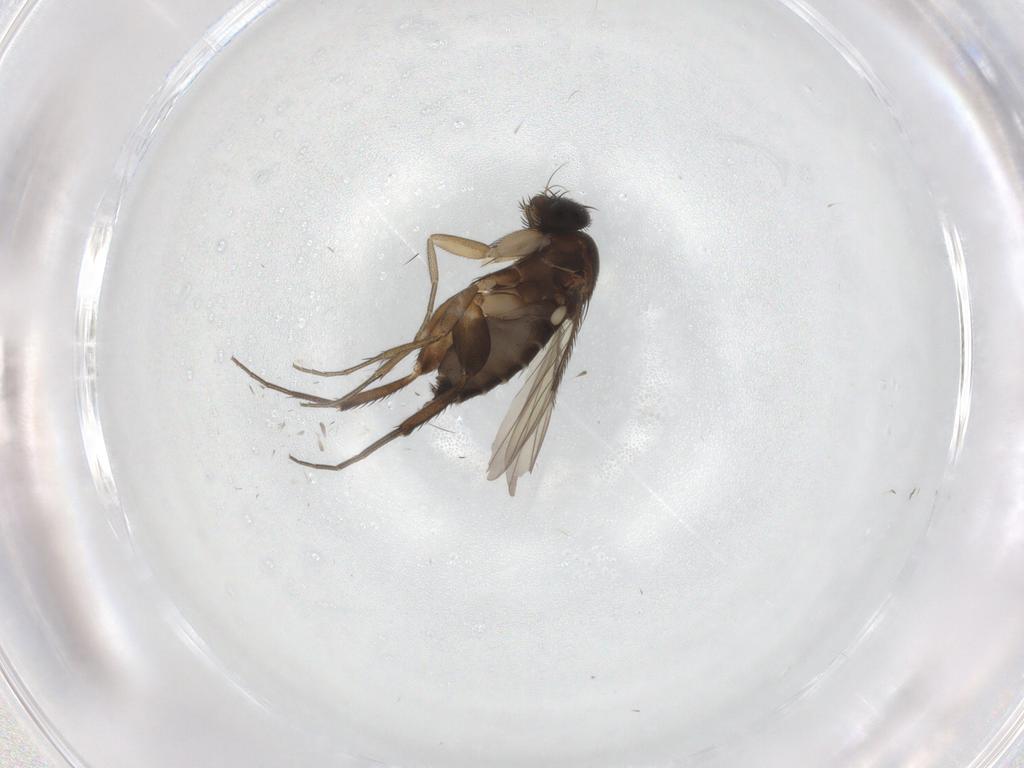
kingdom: Animalia
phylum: Arthropoda
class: Insecta
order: Diptera
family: Phoridae
